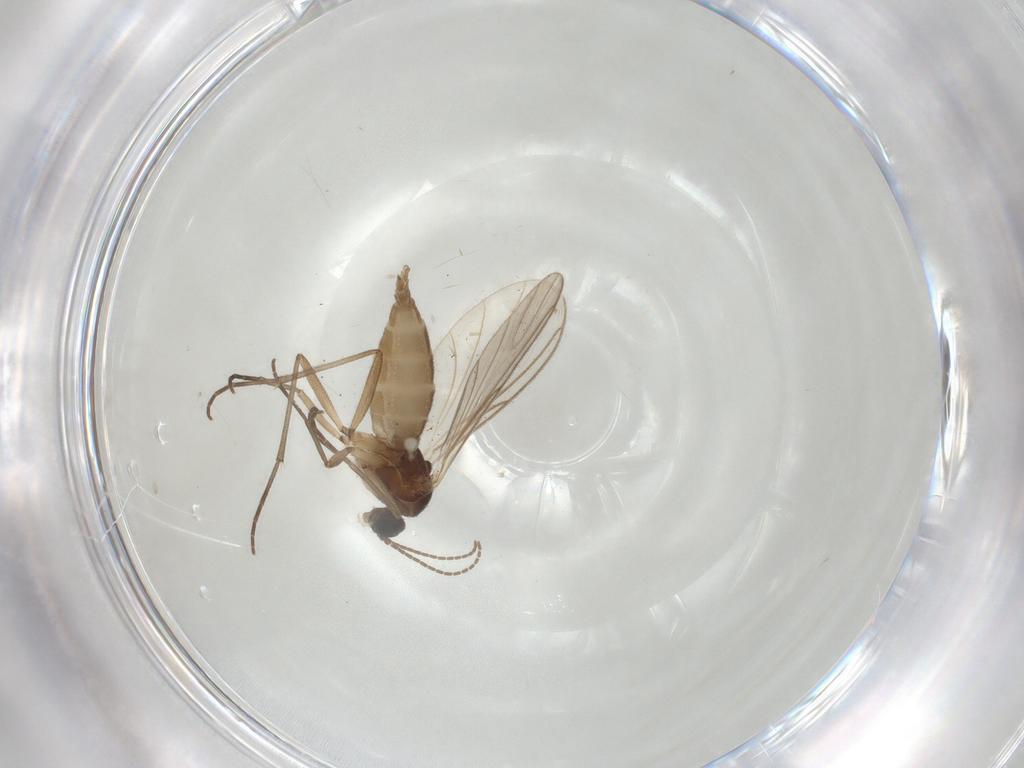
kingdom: Animalia
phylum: Arthropoda
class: Insecta
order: Diptera
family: Sciaridae
